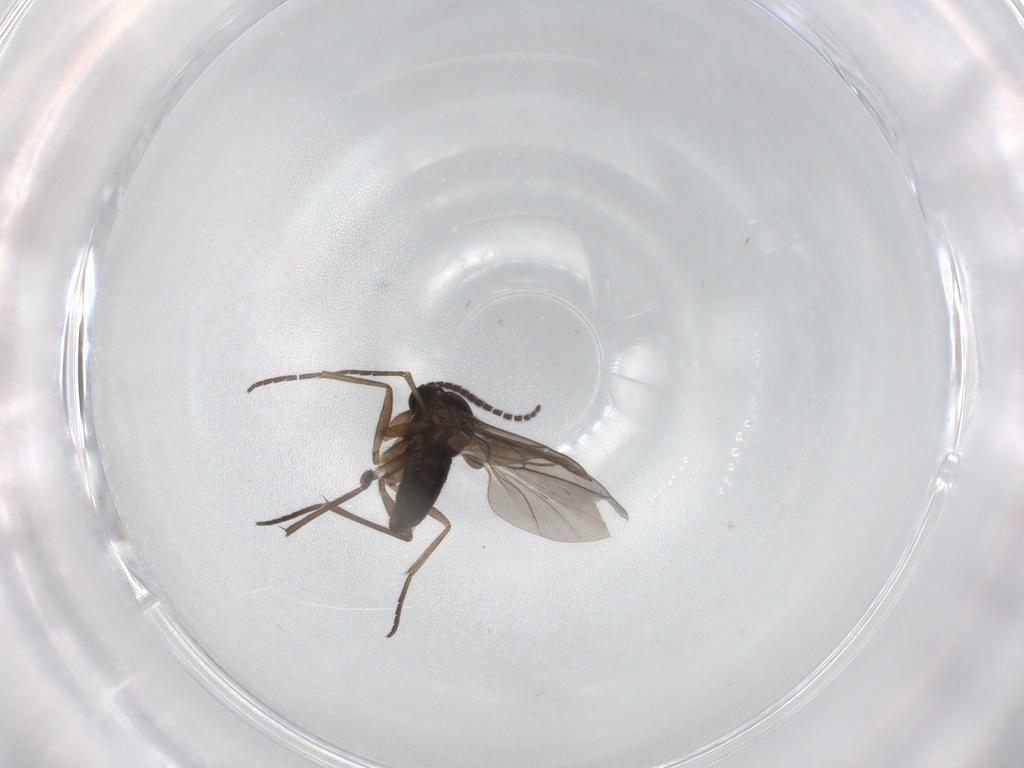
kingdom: Animalia
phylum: Arthropoda
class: Insecta
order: Diptera
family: Sciaridae
